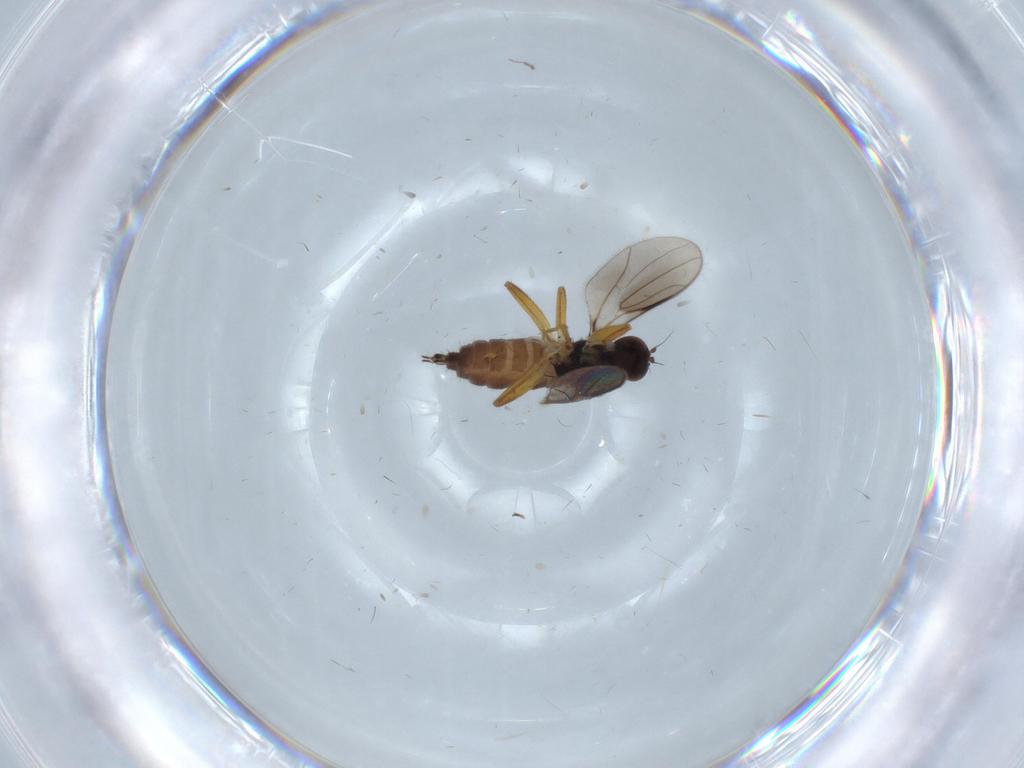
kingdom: Animalia
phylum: Arthropoda
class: Insecta
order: Diptera
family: Hybotidae
